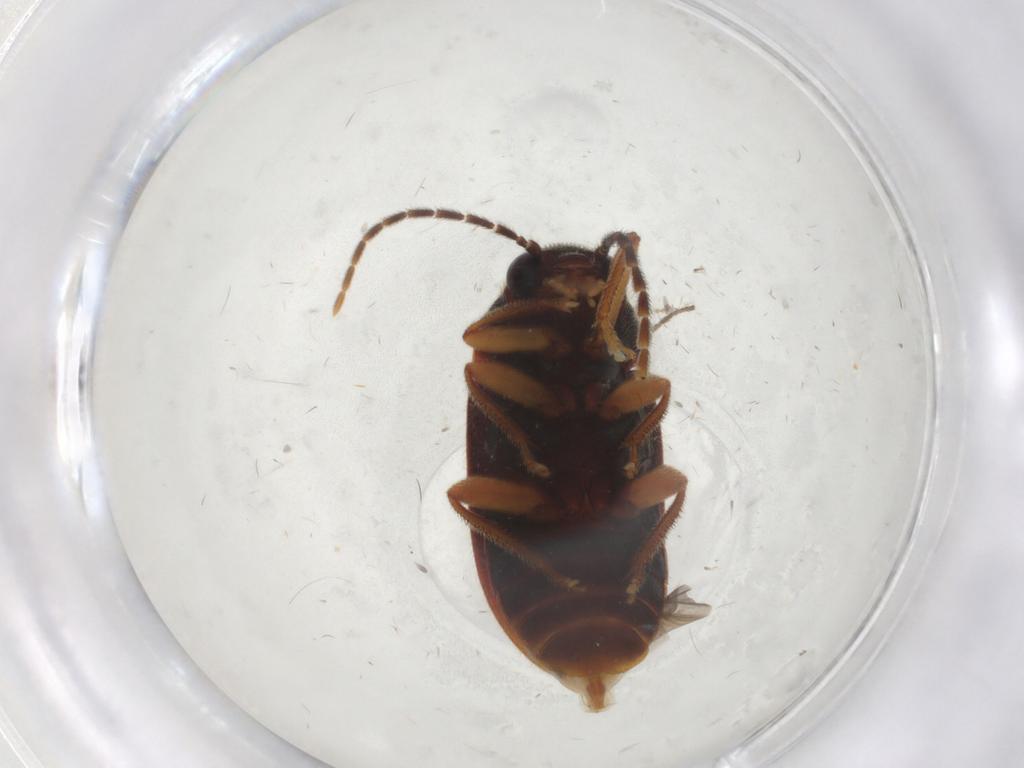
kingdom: Animalia
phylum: Arthropoda
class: Insecta
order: Coleoptera
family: Ptilodactylidae
